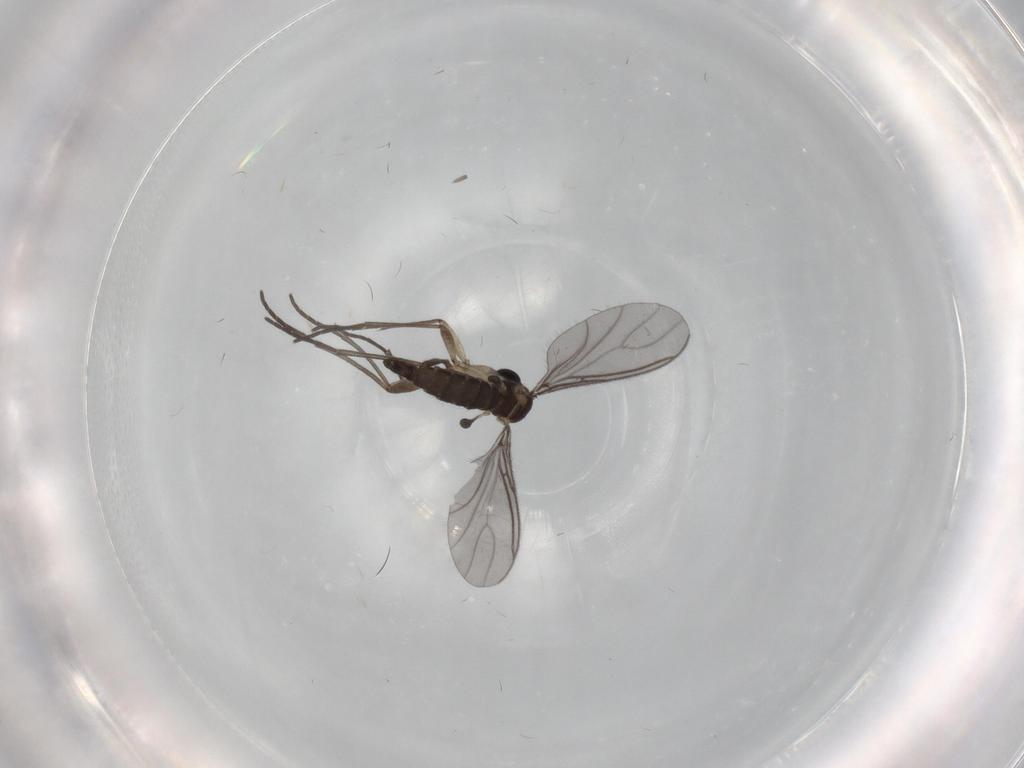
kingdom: Animalia
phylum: Arthropoda
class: Insecta
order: Diptera
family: Sciaridae
